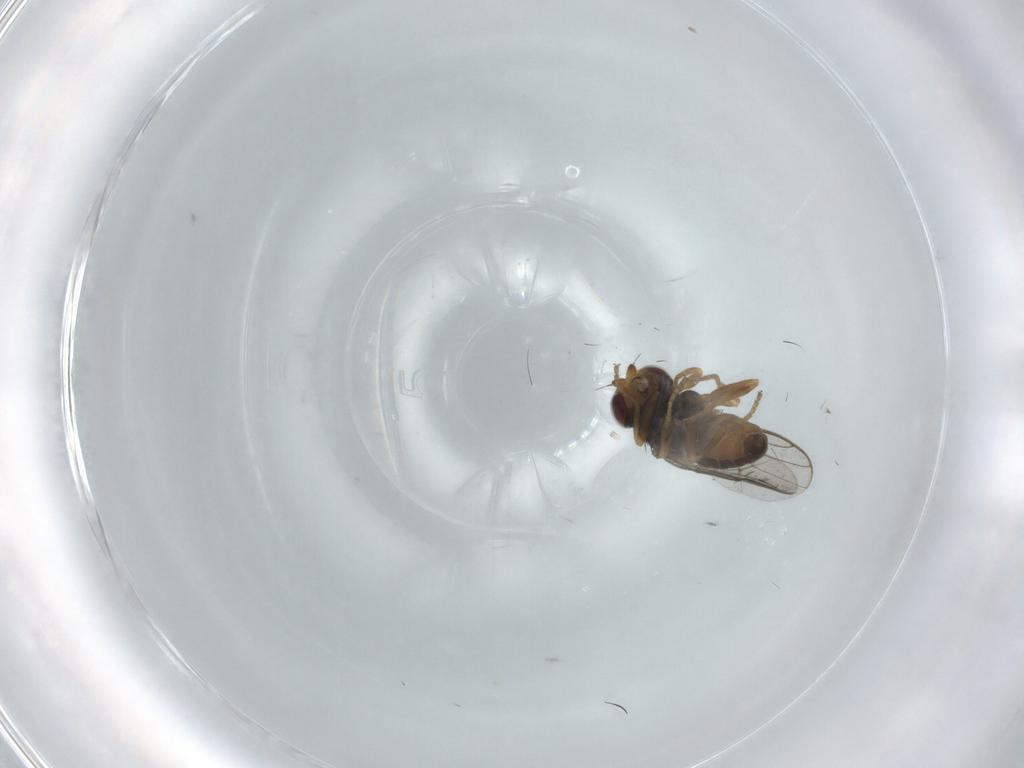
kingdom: Animalia
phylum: Arthropoda
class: Insecta
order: Diptera
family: Chloropidae
